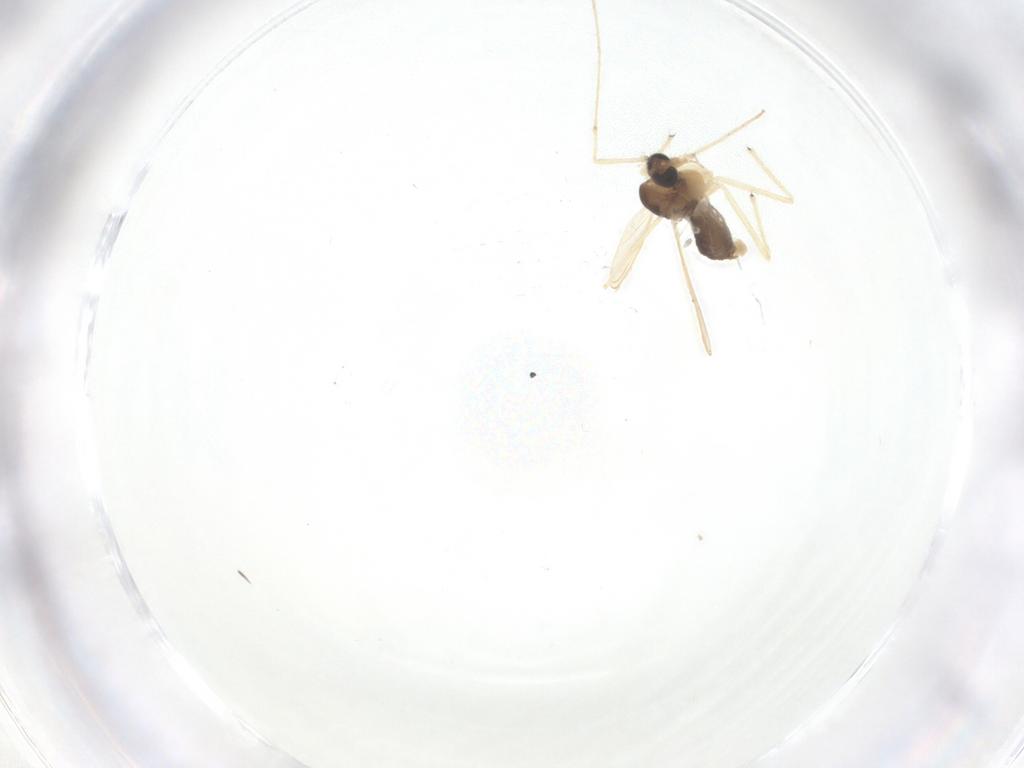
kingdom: Animalia
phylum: Arthropoda
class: Insecta
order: Diptera
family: Chironomidae
